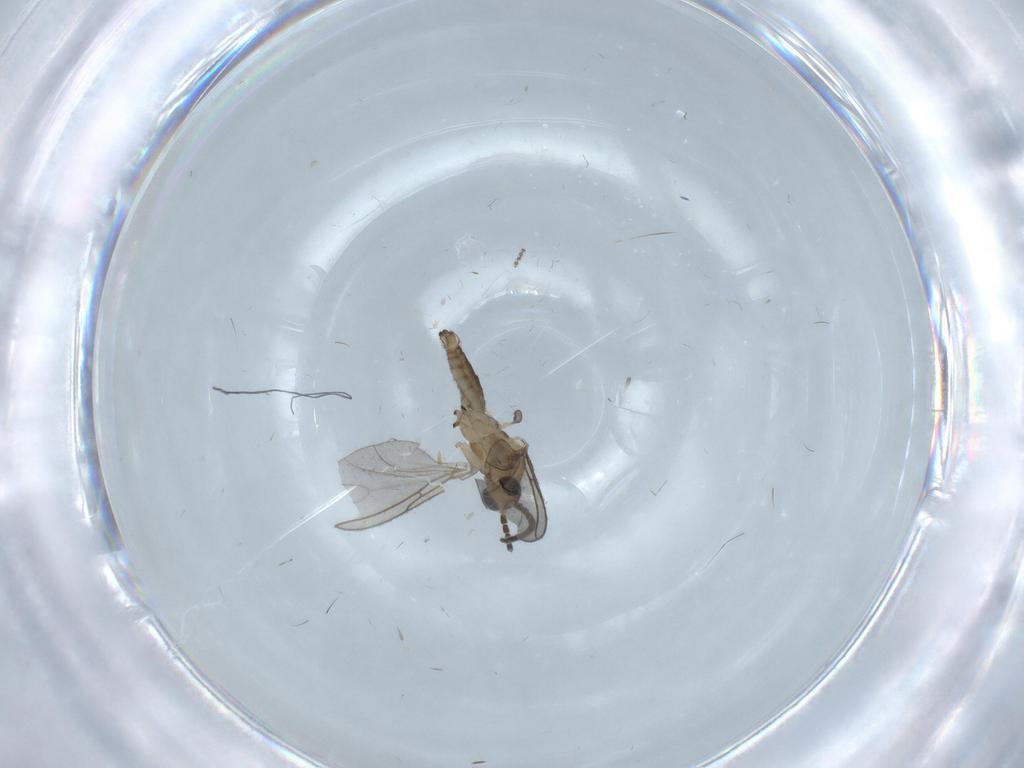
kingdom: Animalia
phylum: Arthropoda
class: Insecta
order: Diptera
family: Sciaridae
